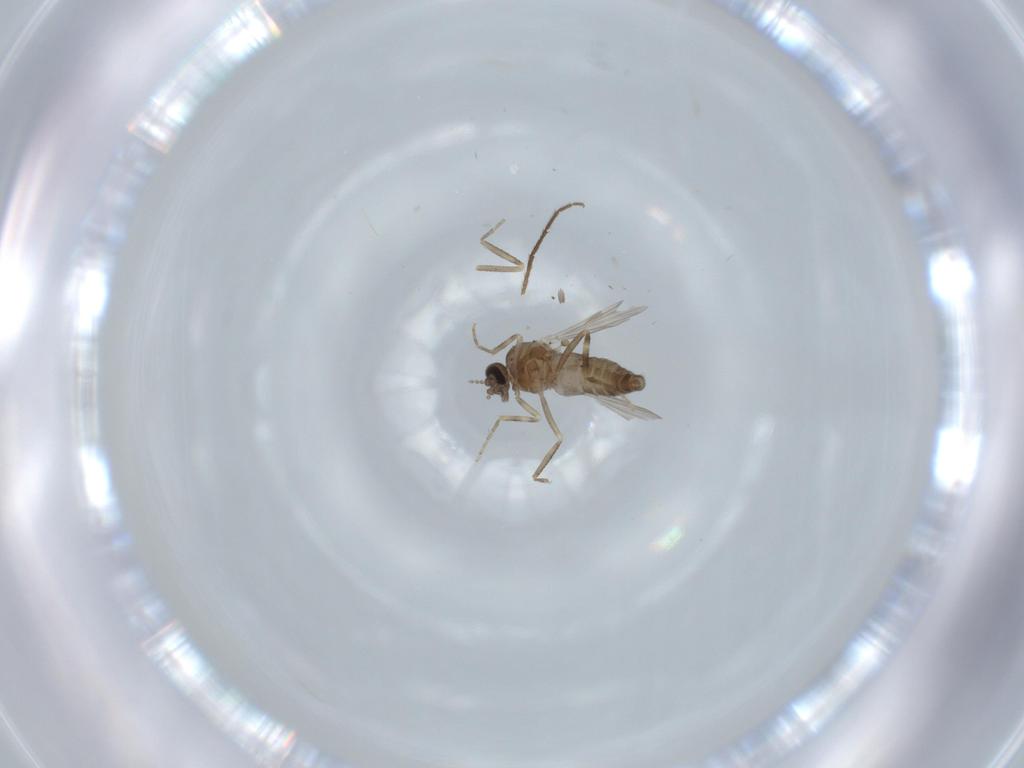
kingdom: Animalia
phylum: Arthropoda
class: Insecta
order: Diptera
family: Ceratopogonidae
